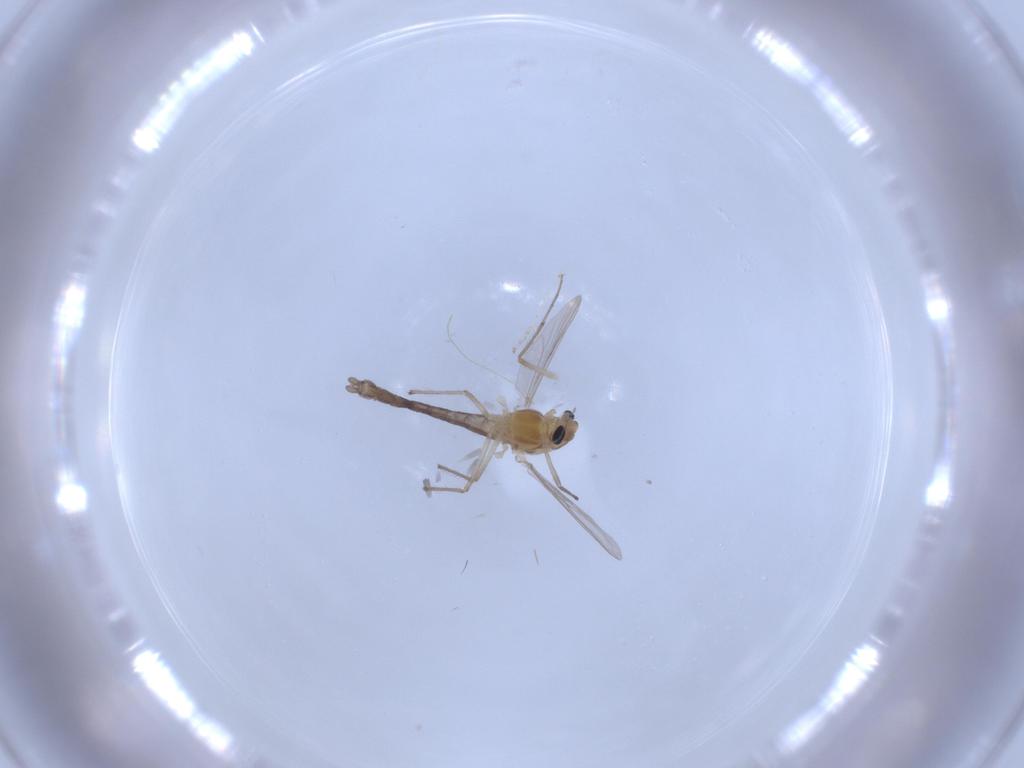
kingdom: Animalia
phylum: Arthropoda
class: Insecta
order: Diptera
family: Chironomidae
